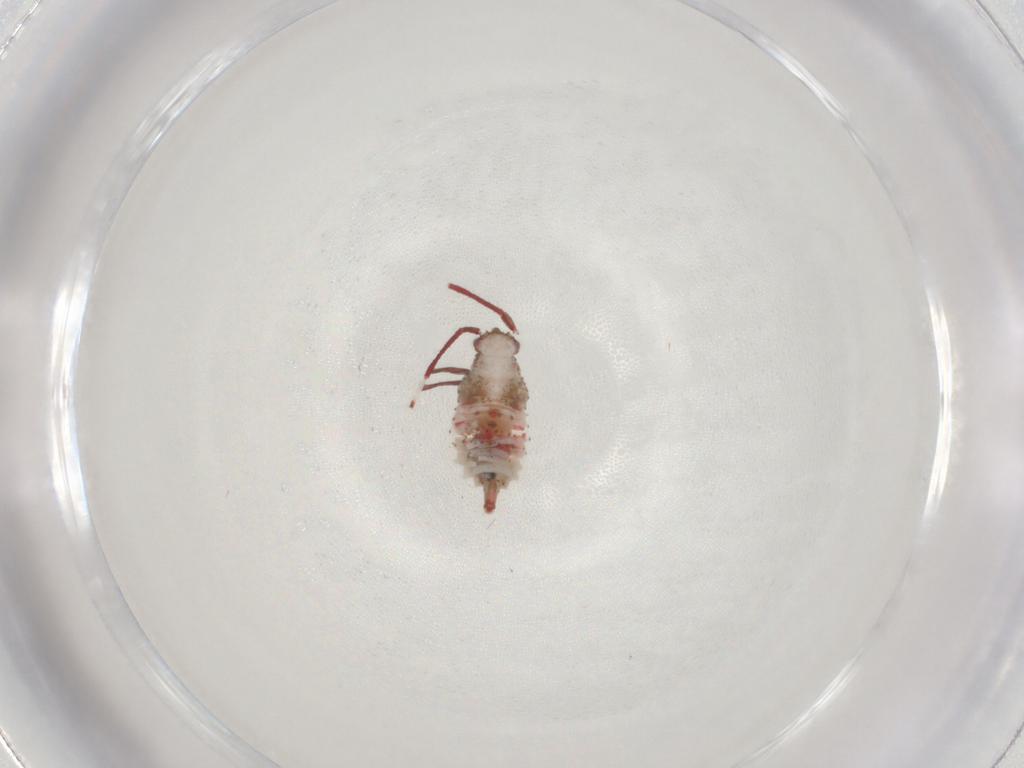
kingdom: Animalia
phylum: Arthropoda
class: Insecta
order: Hemiptera
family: Miridae
